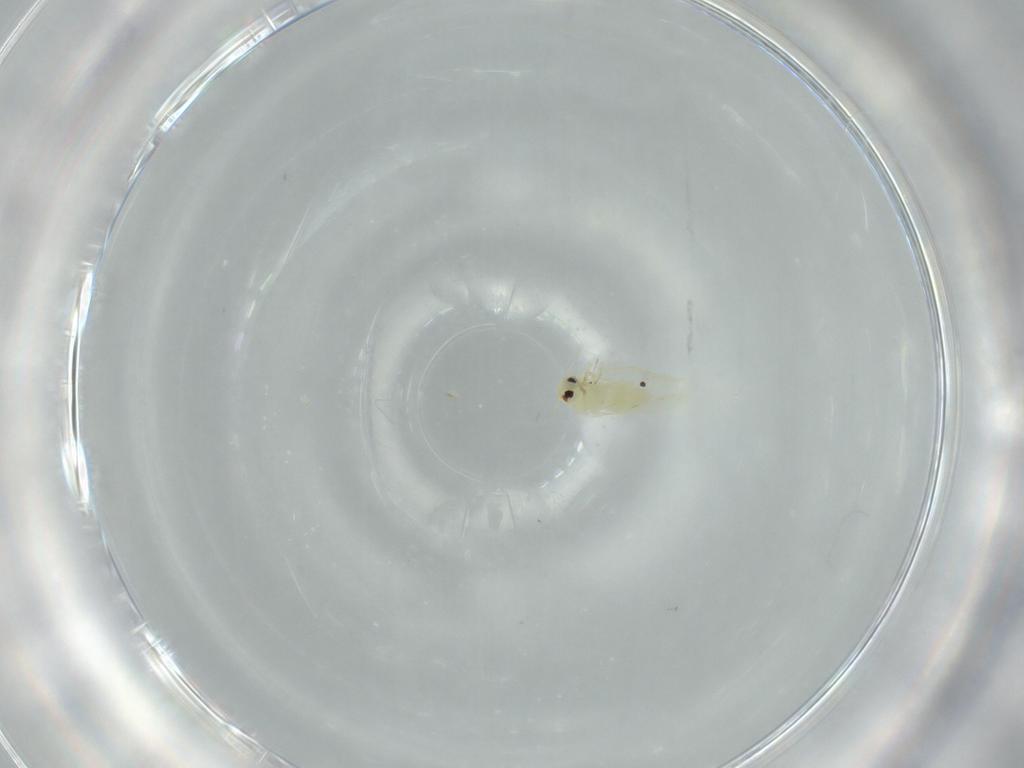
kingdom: Animalia
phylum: Arthropoda
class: Insecta
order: Hemiptera
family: Aleyrodidae
